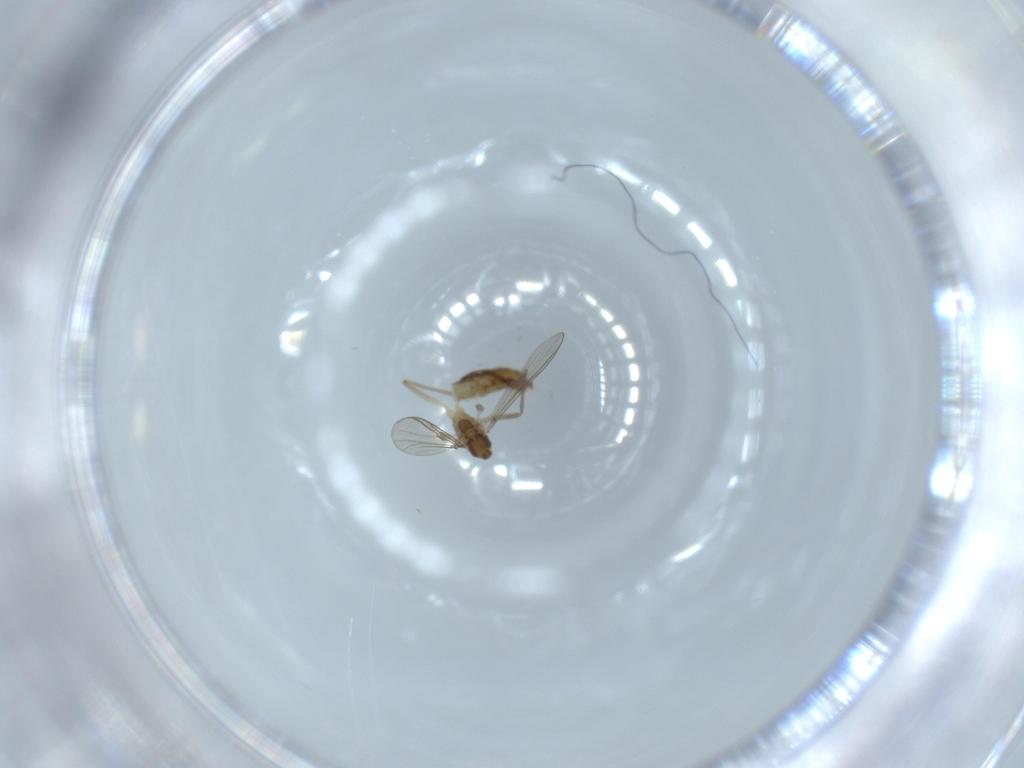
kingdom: Animalia
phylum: Arthropoda
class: Insecta
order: Diptera
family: Chironomidae
